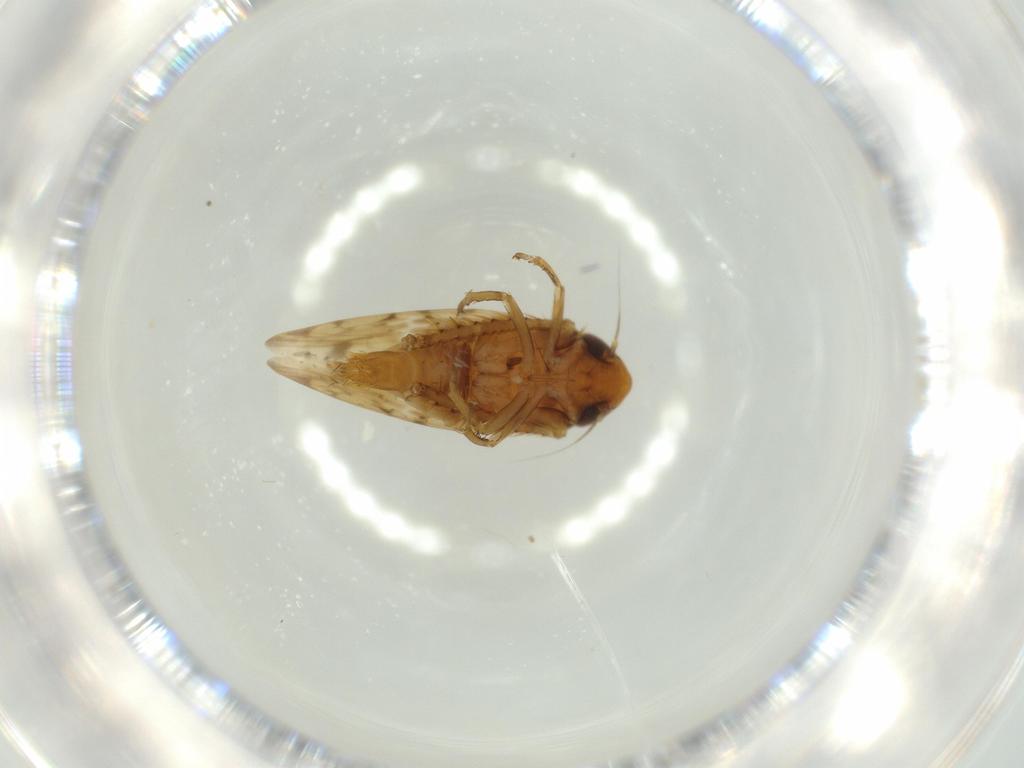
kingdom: Animalia
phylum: Arthropoda
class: Insecta
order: Hemiptera
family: Cicadellidae
